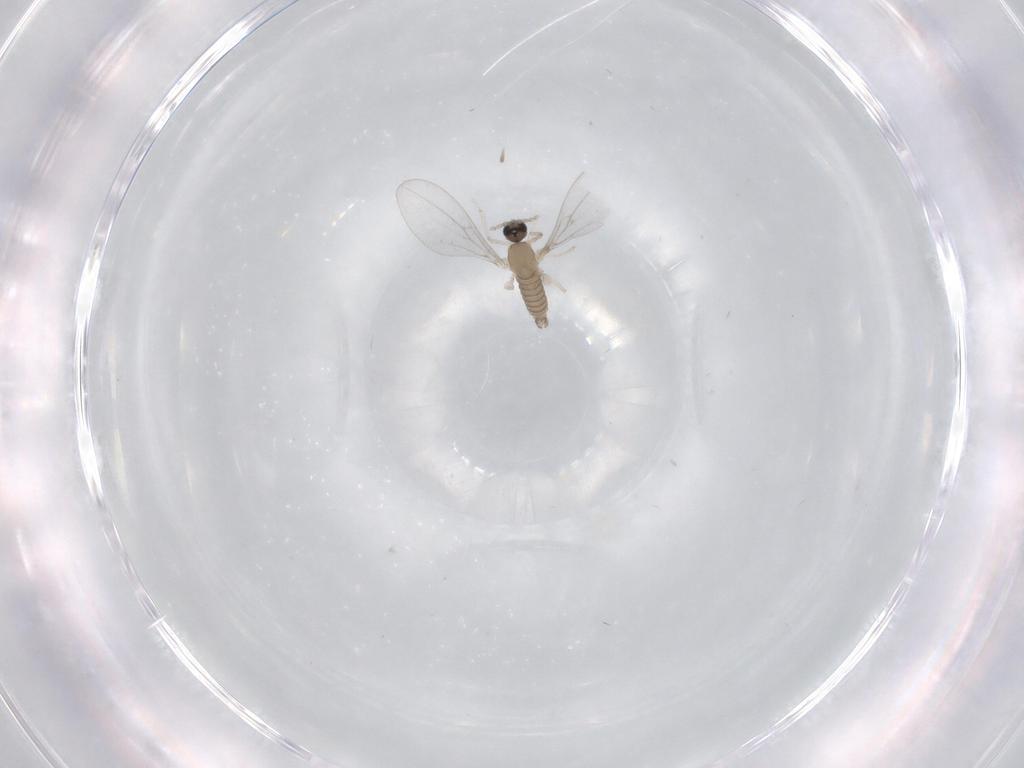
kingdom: Animalia
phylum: Arthropoda
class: Insecta
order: Diptera
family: Cecidomyiidae
